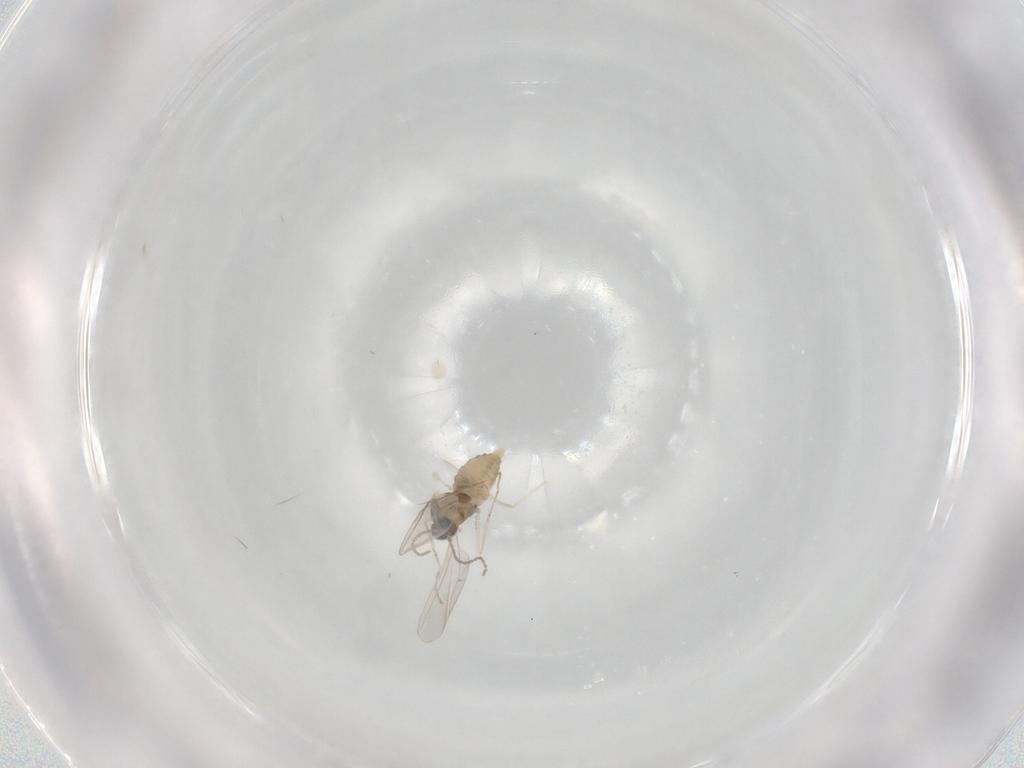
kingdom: Animalia
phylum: Arthropoda
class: Insecta
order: Diptera
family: Cecidomyiidae
